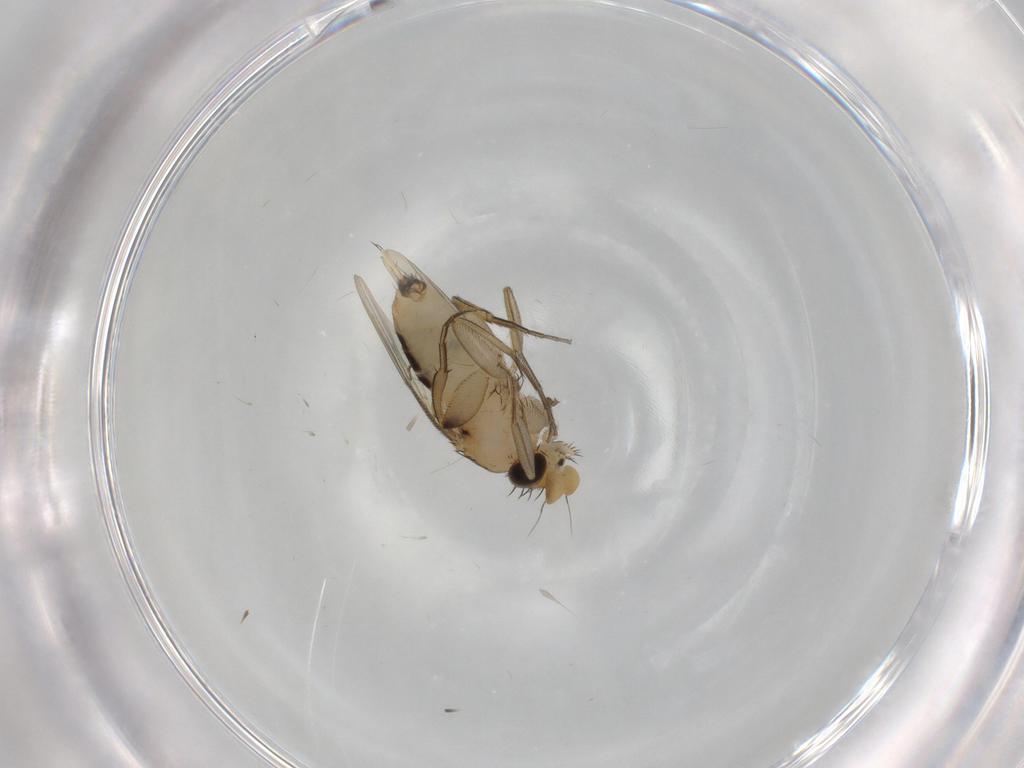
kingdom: Animalia
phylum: Arthropoda
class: Insecta
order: Diptera
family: Phoridae
